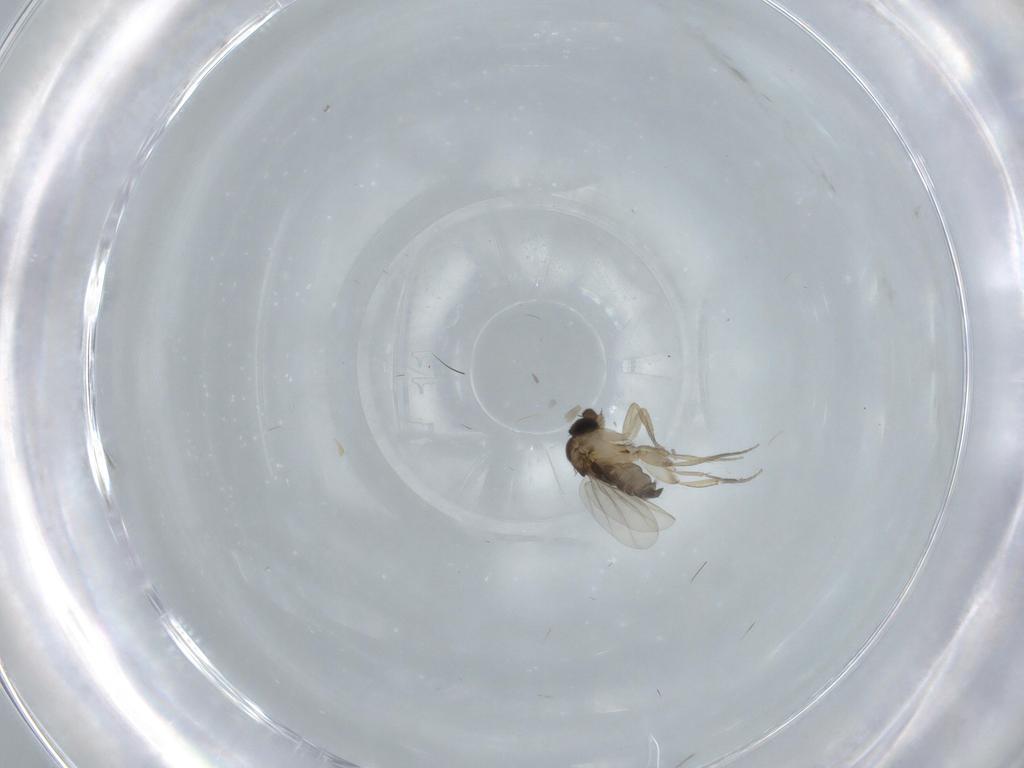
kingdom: Animalia
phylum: Arthropoda
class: Insecta
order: Diptera
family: Phoridae
